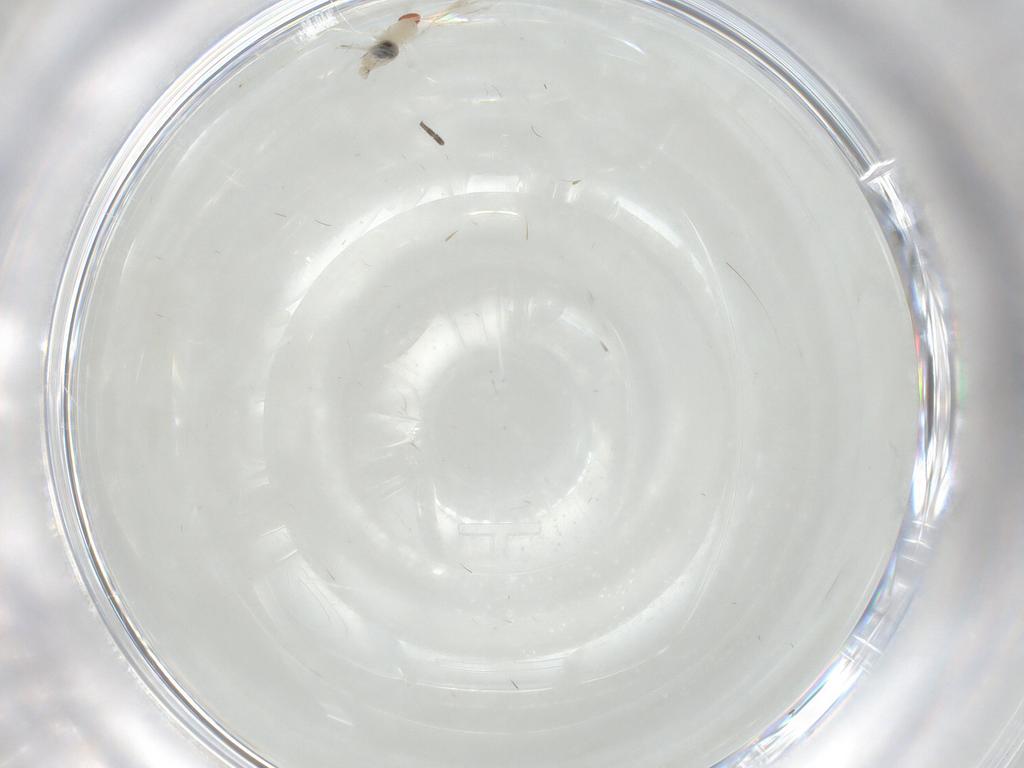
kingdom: Animalia
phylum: Arthropoda
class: Insecta
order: Diptera
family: Cecidomyiidae
